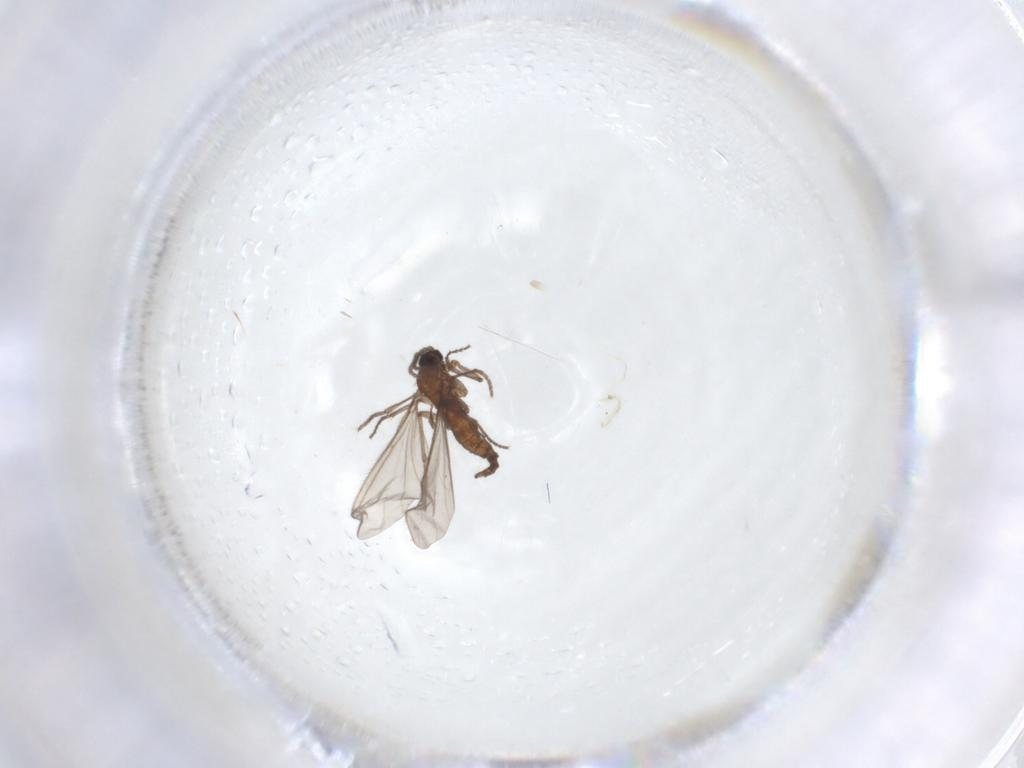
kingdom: Animalia
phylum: Arthropoda
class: Insecta
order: Diptera
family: Sciaridae
